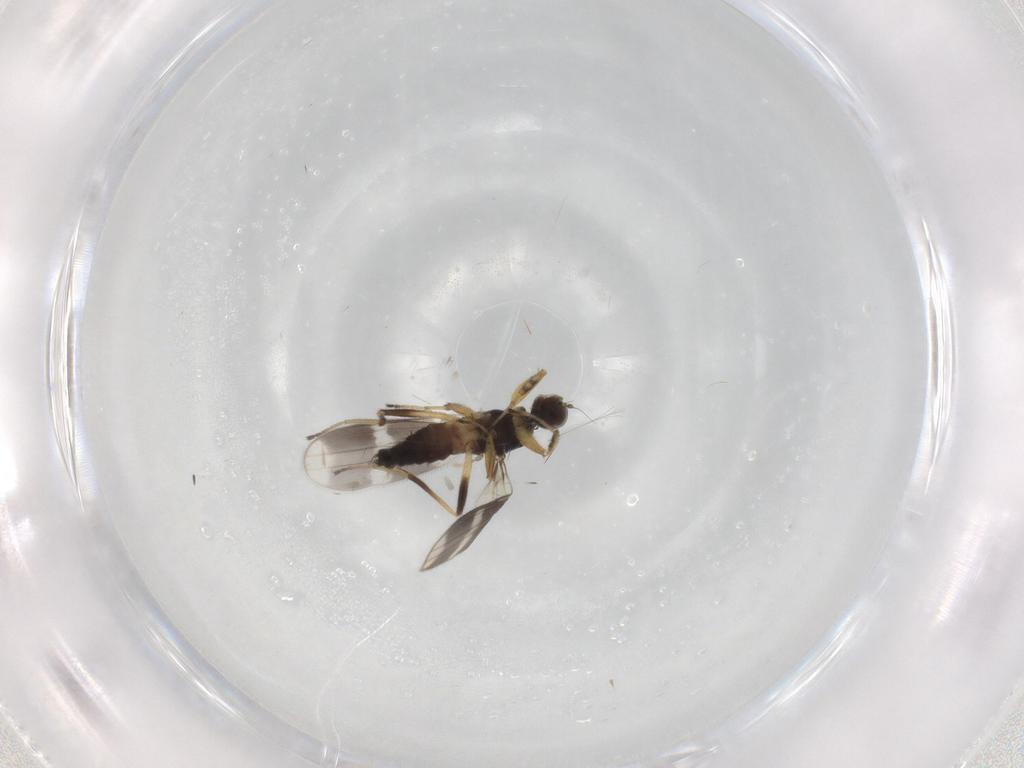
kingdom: Animalia
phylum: Arthropoda
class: Insecta
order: Diptera
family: Hybotidae
